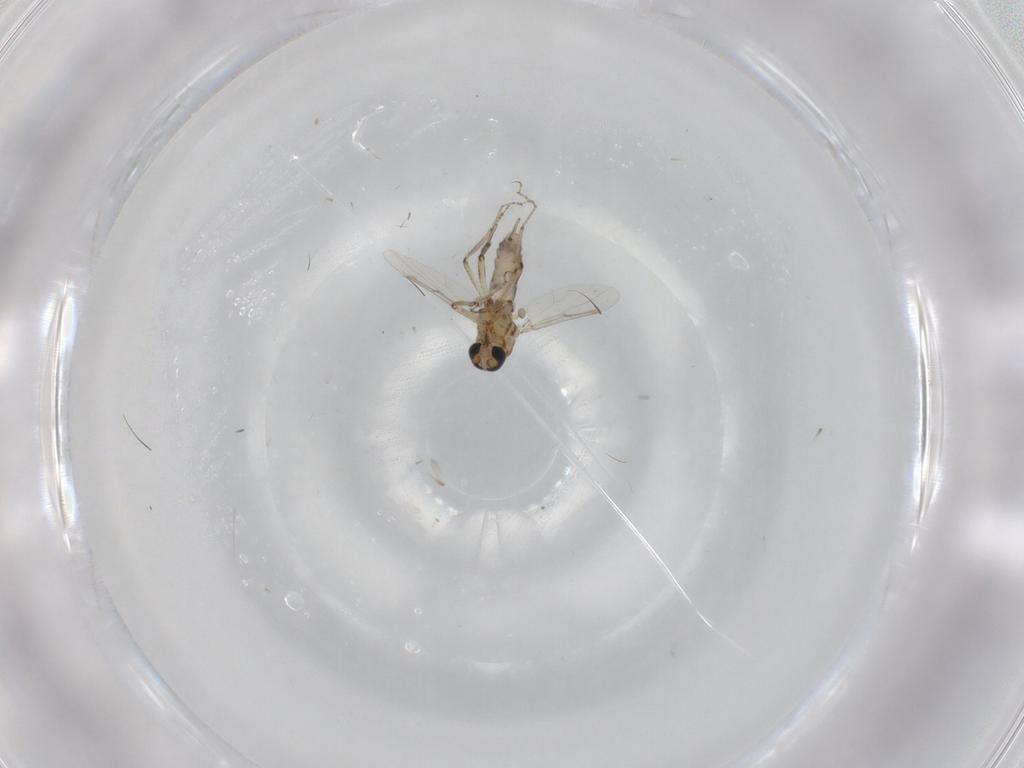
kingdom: Animalia
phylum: Arthropoda
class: Insecta
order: Diptera
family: Ceratopogonidae
